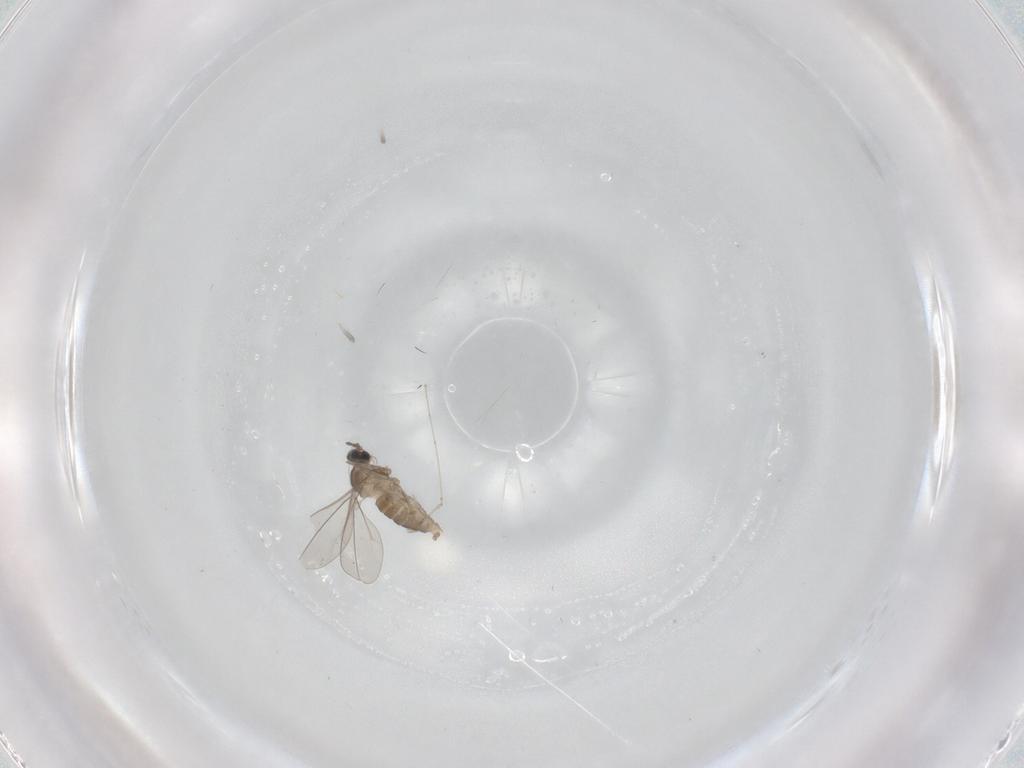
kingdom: Animalia
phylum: Arthropoda
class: Insecta
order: Diptera
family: Cecidomyiidae
